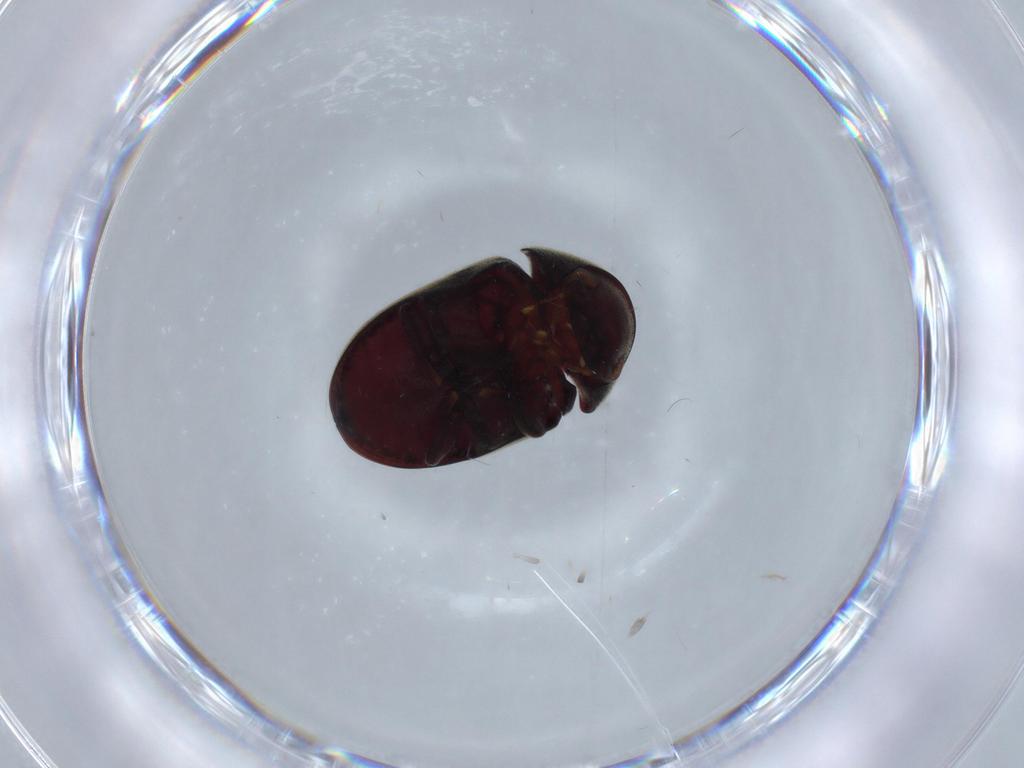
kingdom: Animalia
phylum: Arthropoda
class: Insecta
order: Coleoptera
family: Ptinidae
